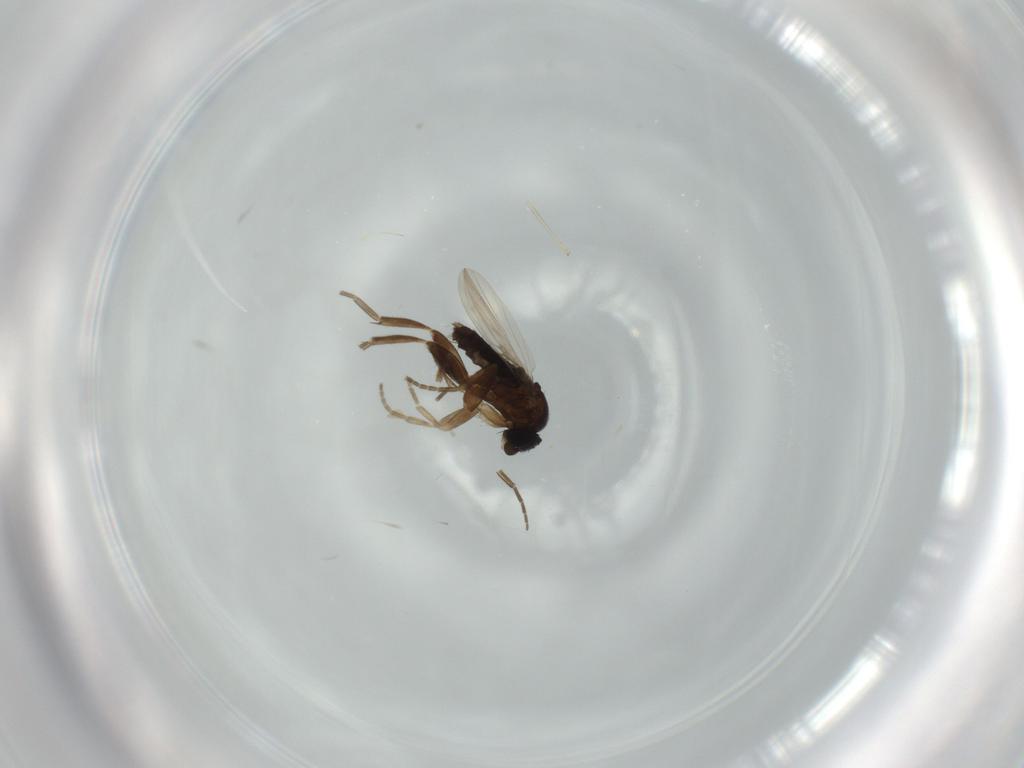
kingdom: Animalia
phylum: Arthropoda
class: Insecta
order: Diptera
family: Phoridae
